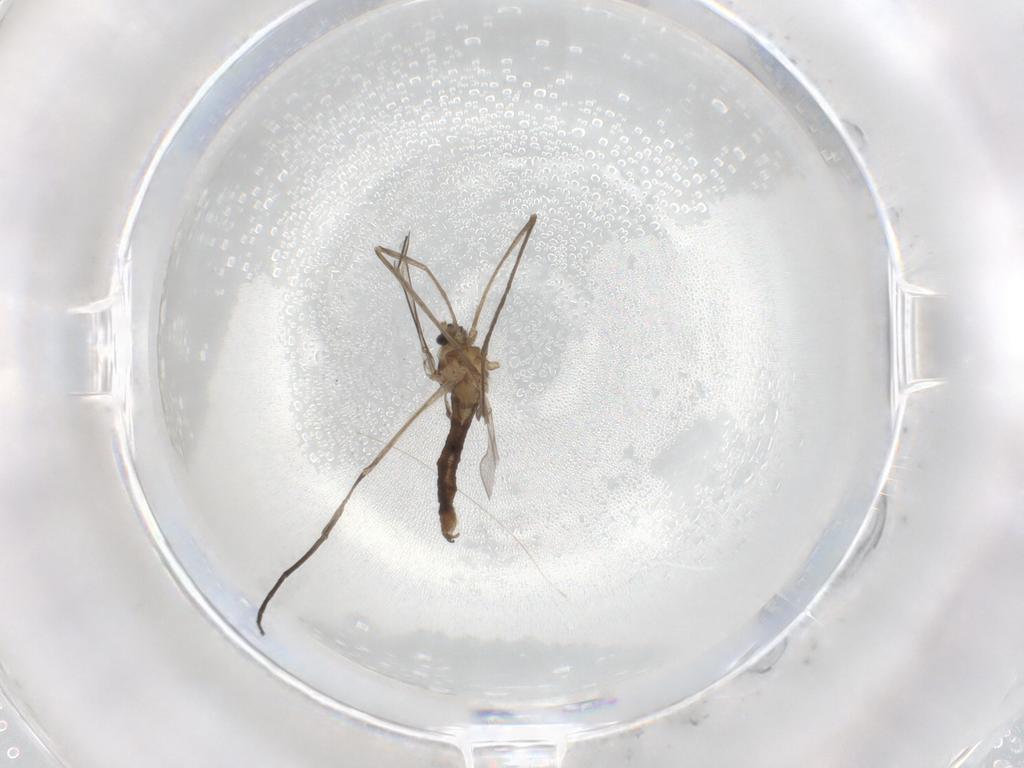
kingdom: Animalia
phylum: Arthropoda
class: Insecta
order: Diptera
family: Cecidomyiidae
